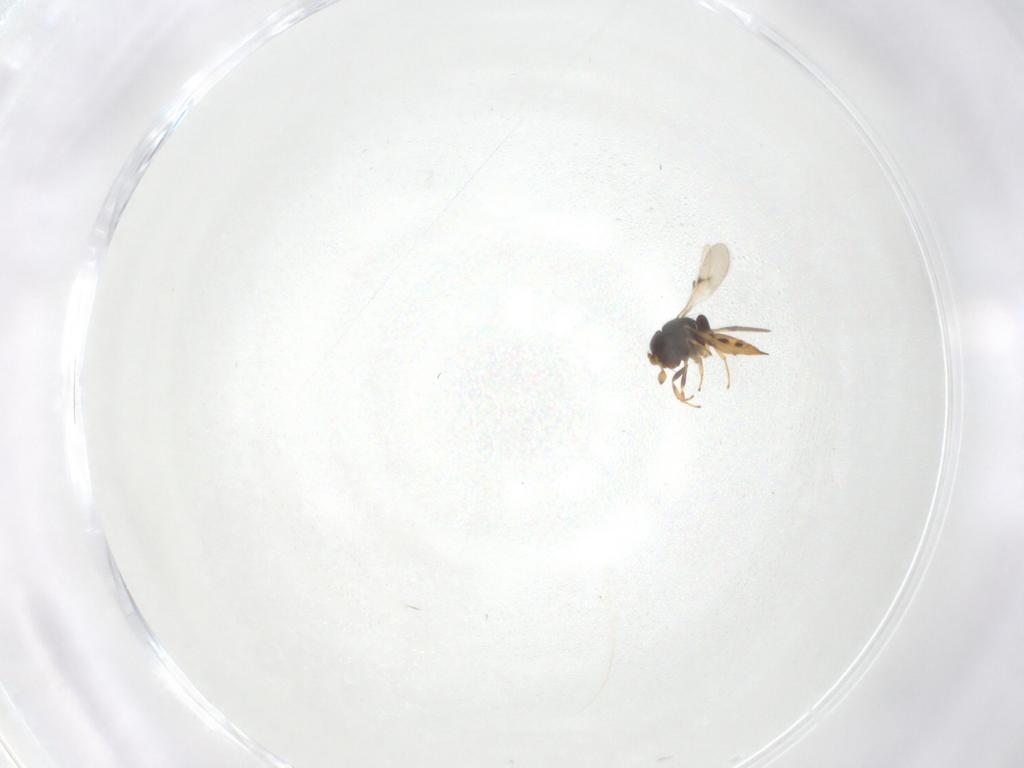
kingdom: Animalia
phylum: Arthropoda
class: Insecta
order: Hymenoptera
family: Scelionidae
